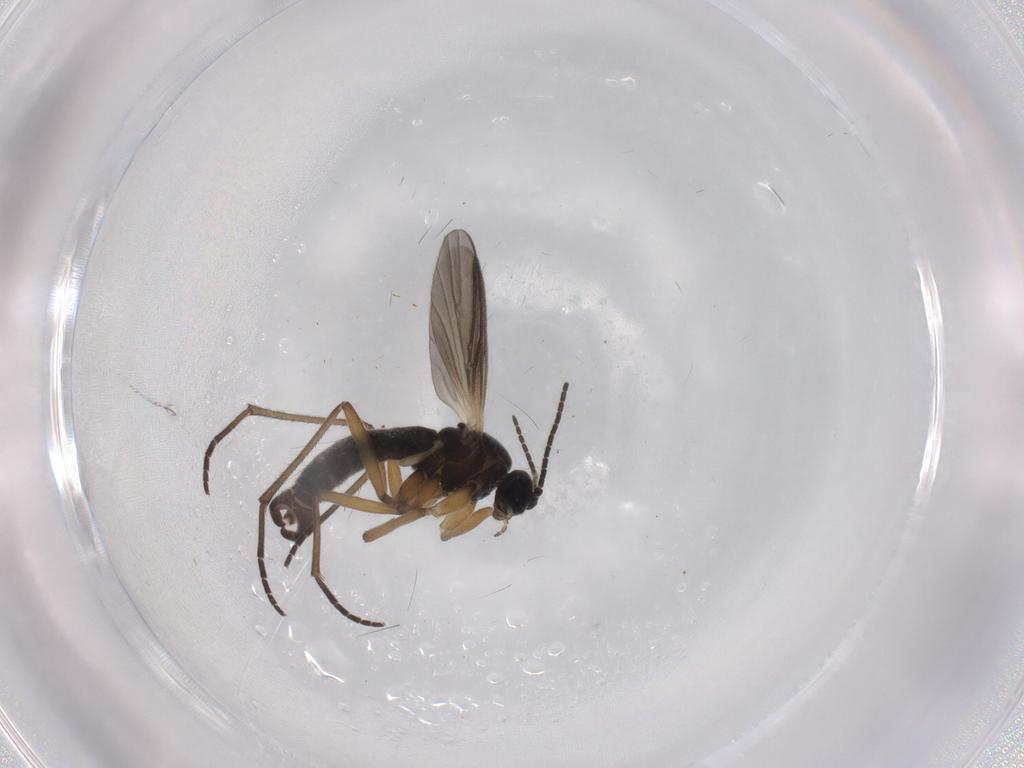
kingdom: Animalia
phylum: Arthropoda
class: Insecta
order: Diptera
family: Sciaridae
